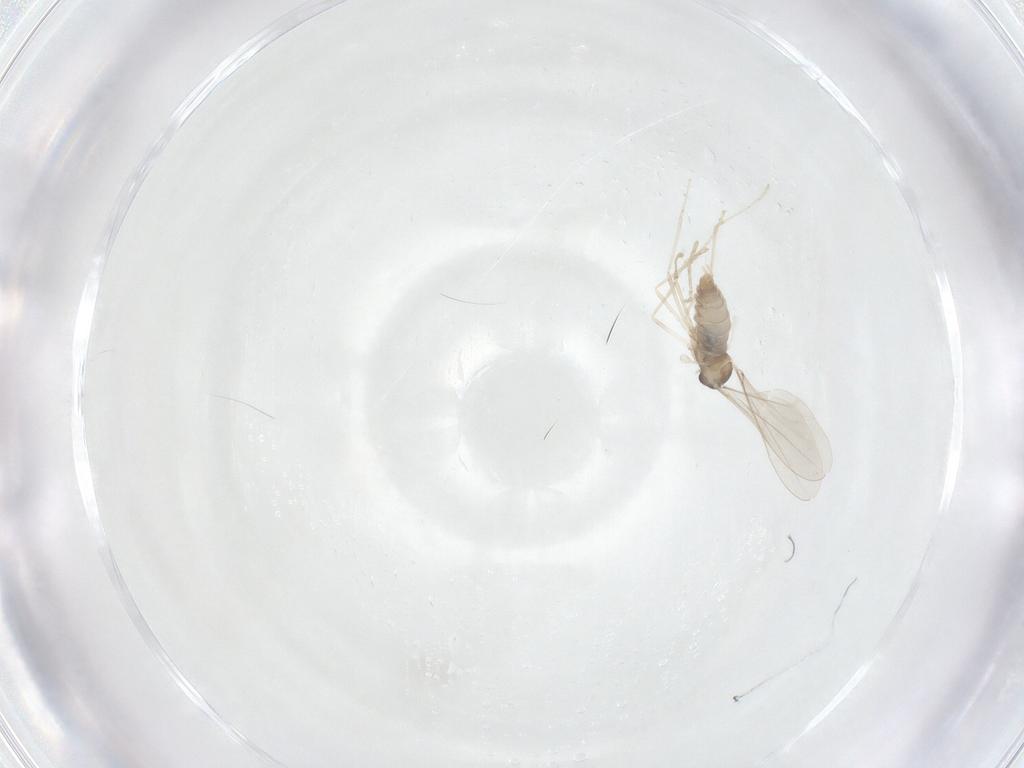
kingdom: Animalia
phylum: Arthropoda
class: Insecta
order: Diptera
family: Cecidomyiidae
